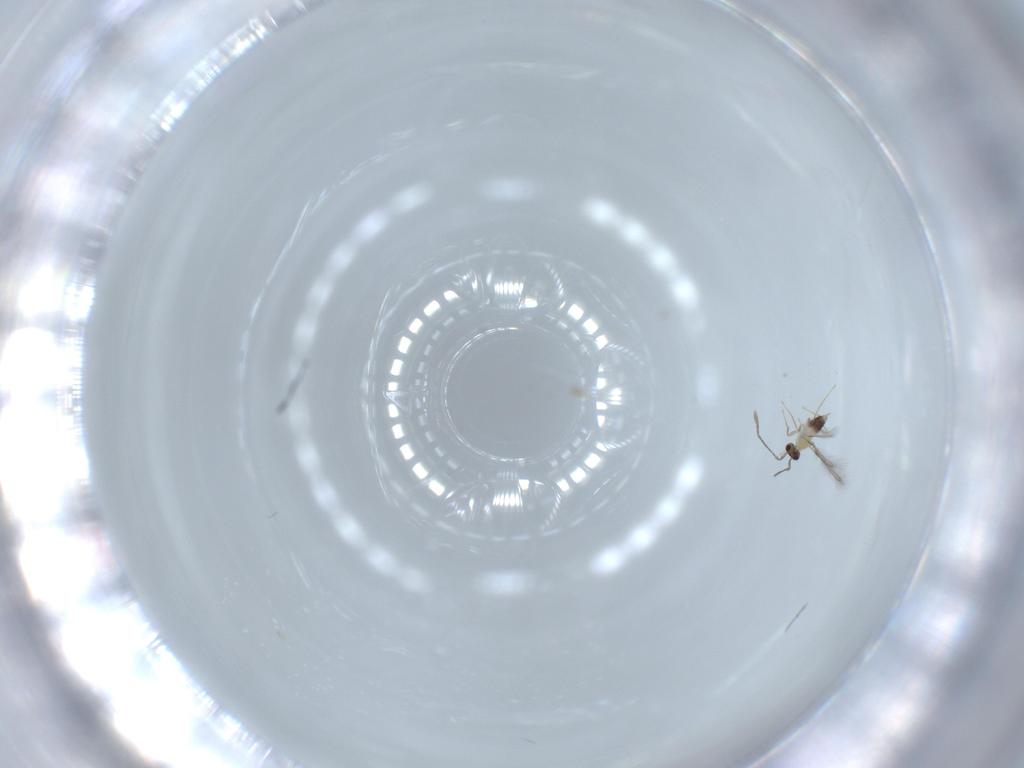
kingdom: Animalia
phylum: Arthropoda
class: Insecta
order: Hymenoptera
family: Mymaridae
